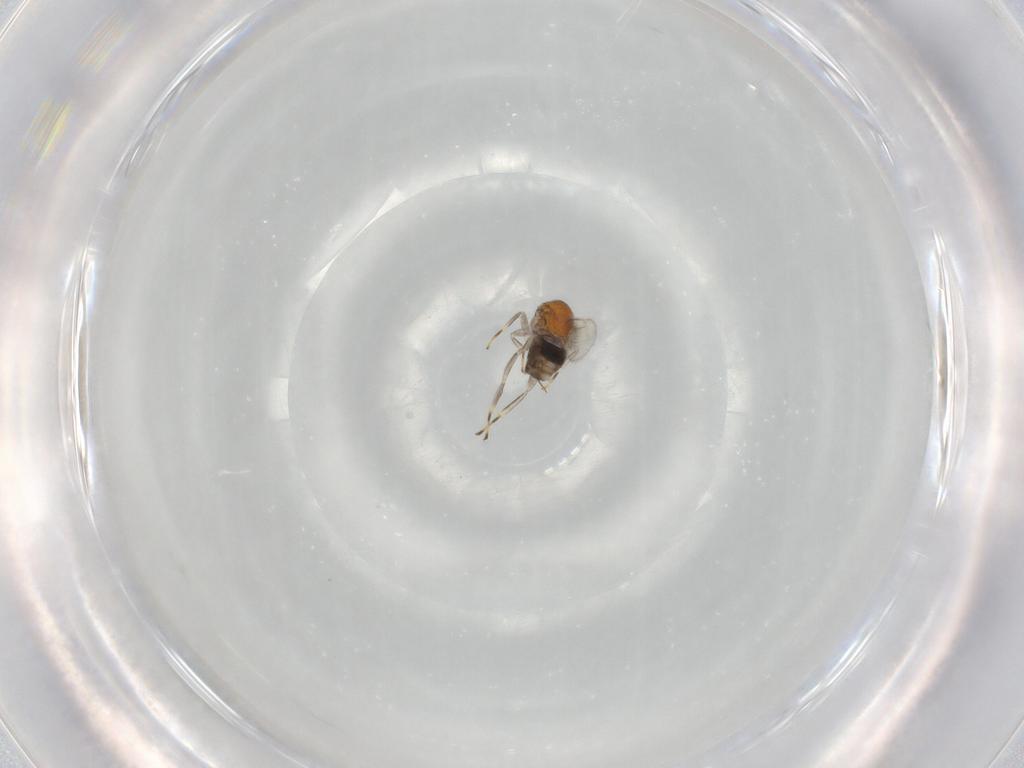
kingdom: Animalia
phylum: Arthropoda
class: Insecta
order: Hymenoptera
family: Aphelinidae
